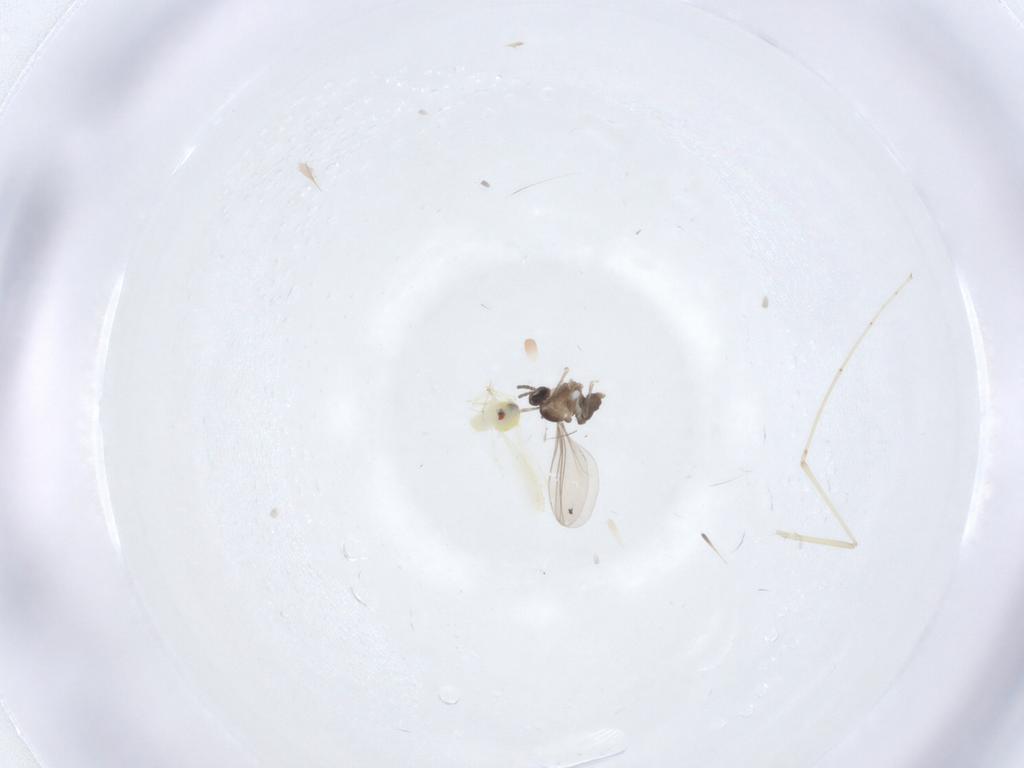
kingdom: Animalia
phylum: Arthropoda
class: Insecta
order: Diptera
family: Cecidomyiidae
